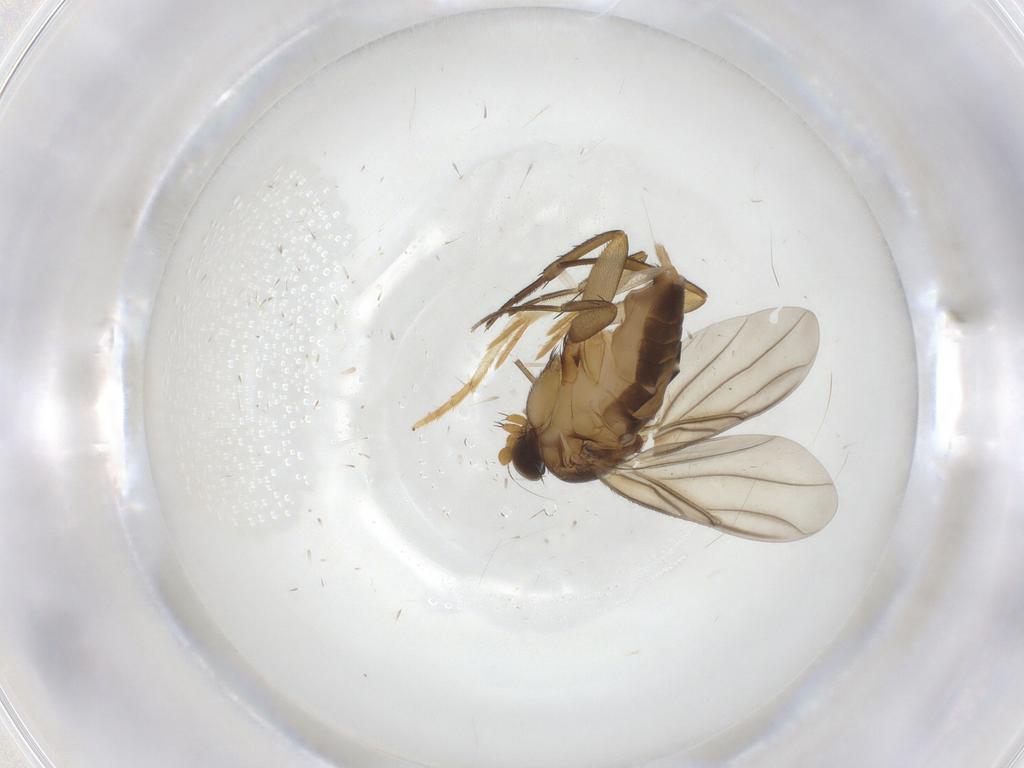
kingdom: Animalia
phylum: Arthropoda
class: Insecta
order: Diptera
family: Phoridae
